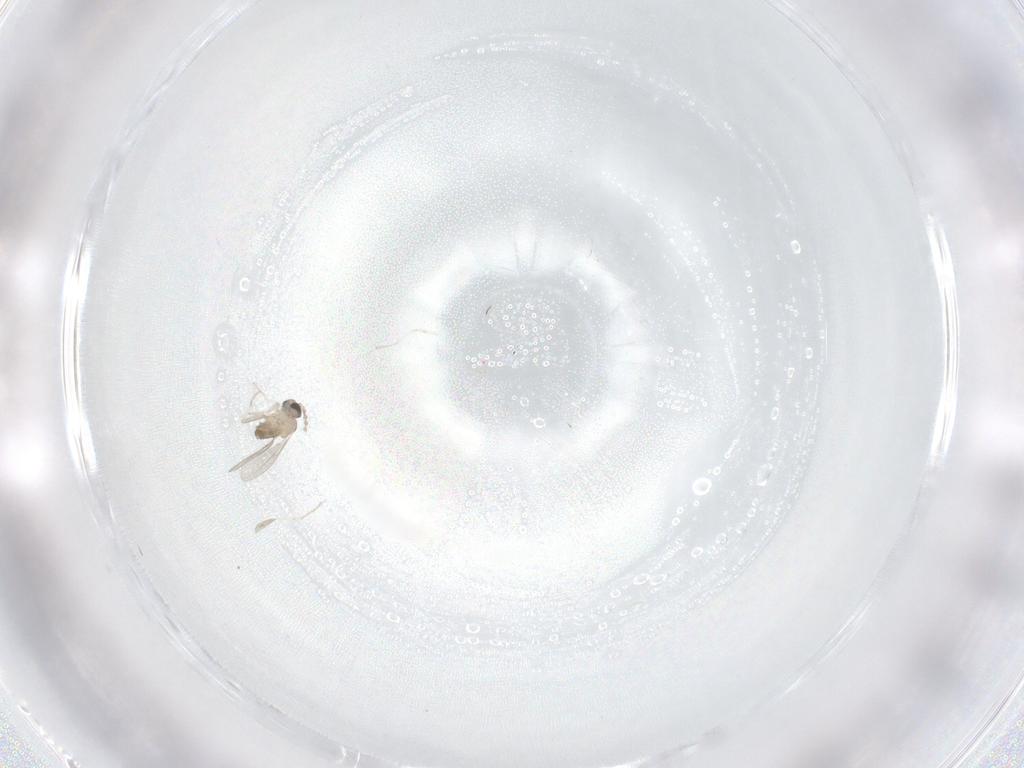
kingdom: Animalia
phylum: Arthropoda
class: Insecta
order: Diptera
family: Cecidomyiidae
